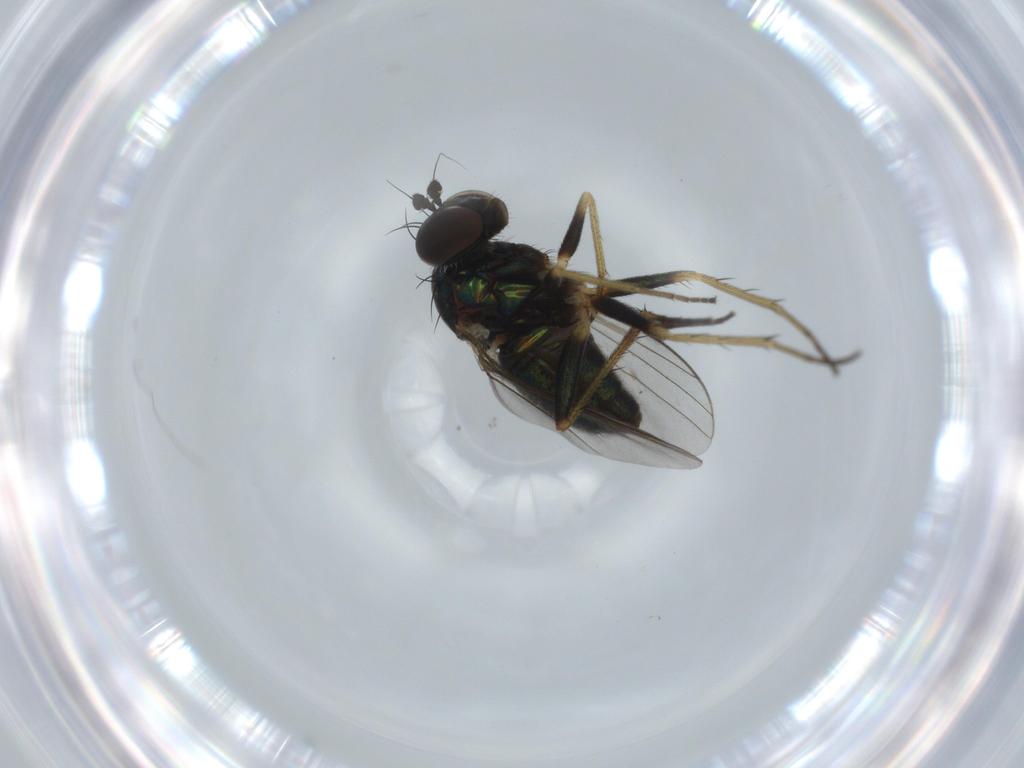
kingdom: Animalia
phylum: Arthropoda
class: Insecta
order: Diptera
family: Dolichopodidae
